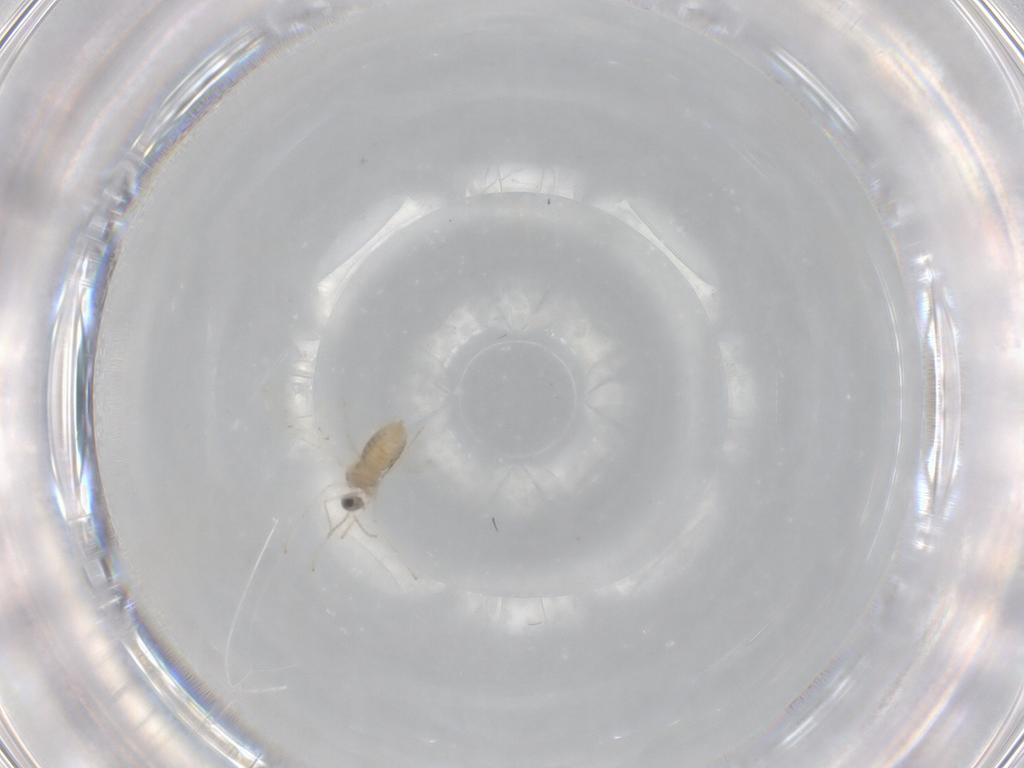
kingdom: Animalia
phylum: Arthropoda
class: Insecta
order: Diptera
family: Cecidomyiidae
